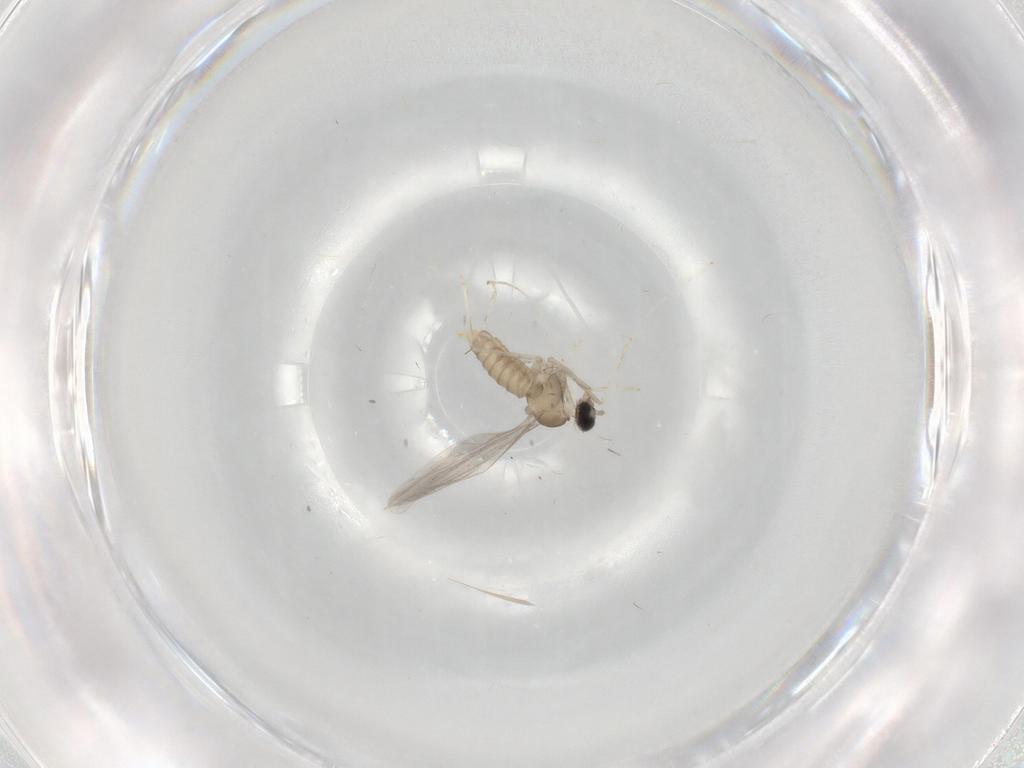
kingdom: Animalia
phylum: Arthropoda
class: Insecta
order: Diptera
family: Cecidomyiidae
